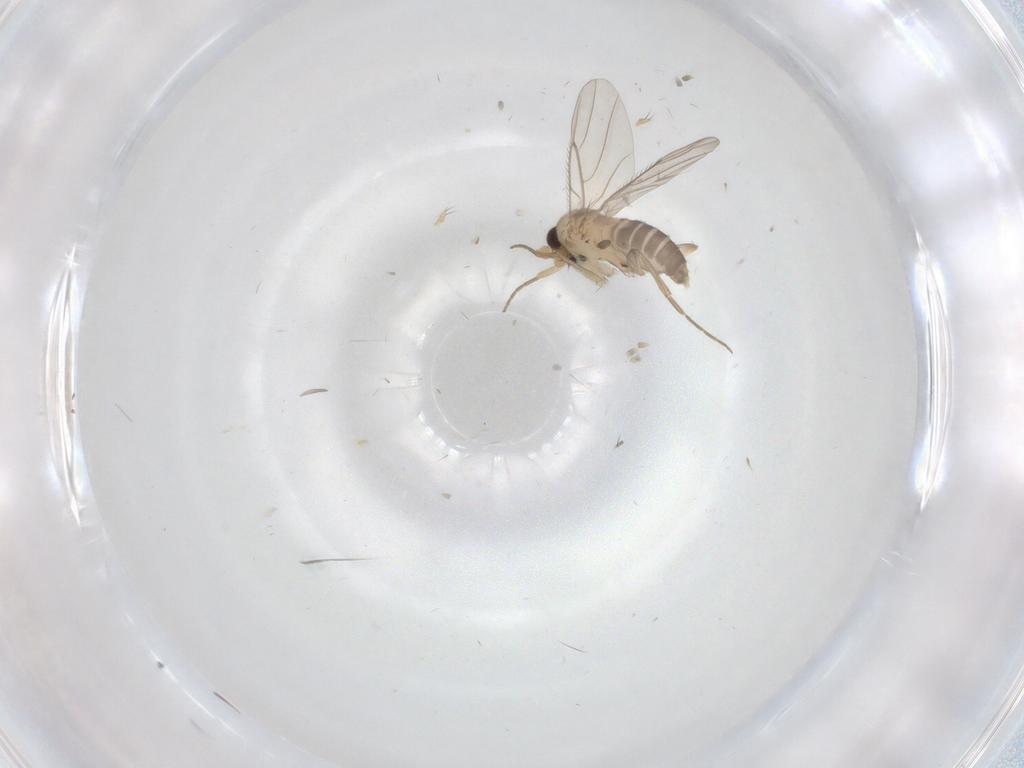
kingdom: Animalia
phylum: Arthropoda
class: Insecta
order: Diptera
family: Phoridae
